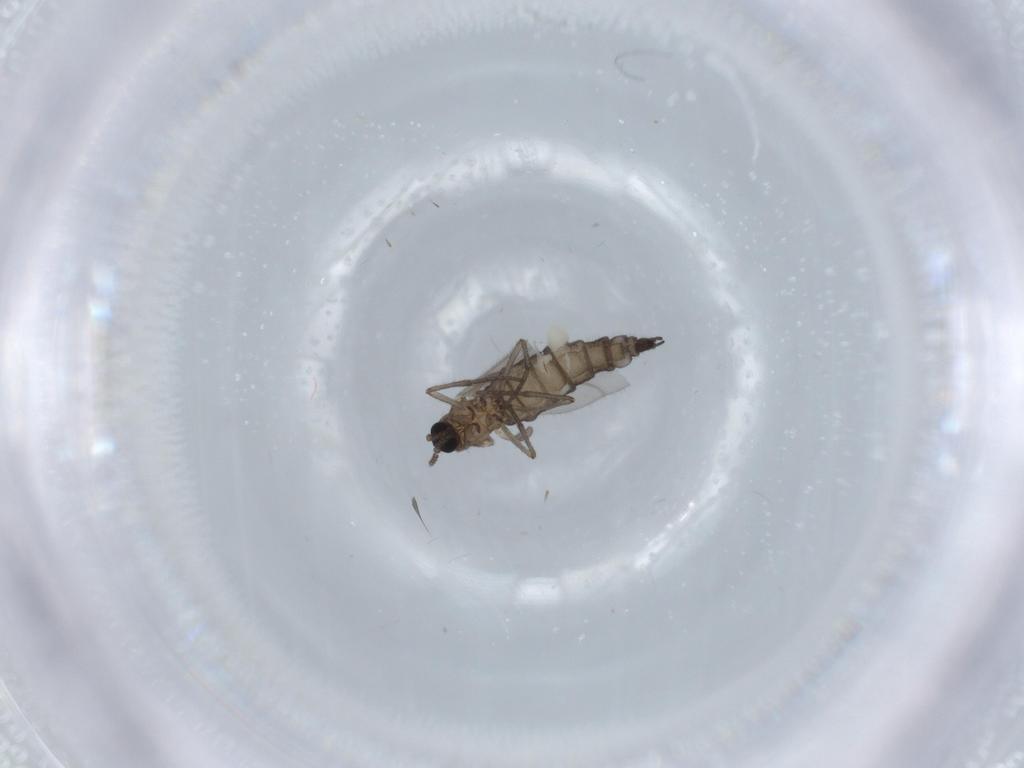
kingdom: Animalia
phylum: Arthropoda
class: Insecta
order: Diptera
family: Sciaridae
